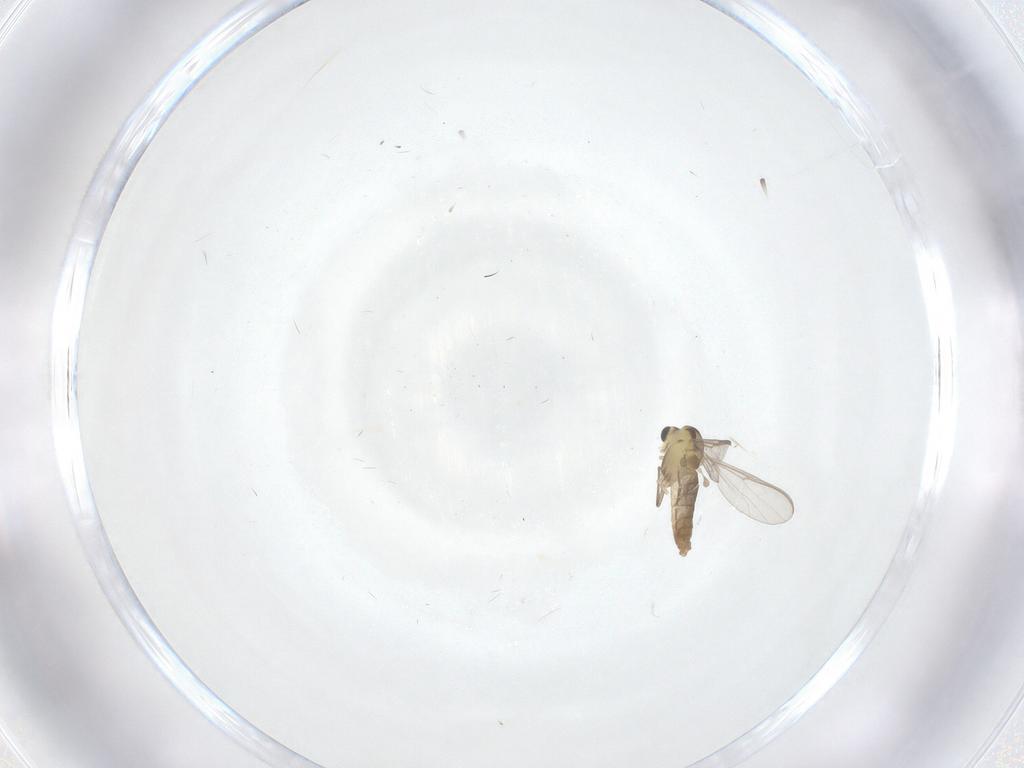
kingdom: Animalia
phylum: Arthropoda
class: Insecta
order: Diptera
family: Chironomidae
